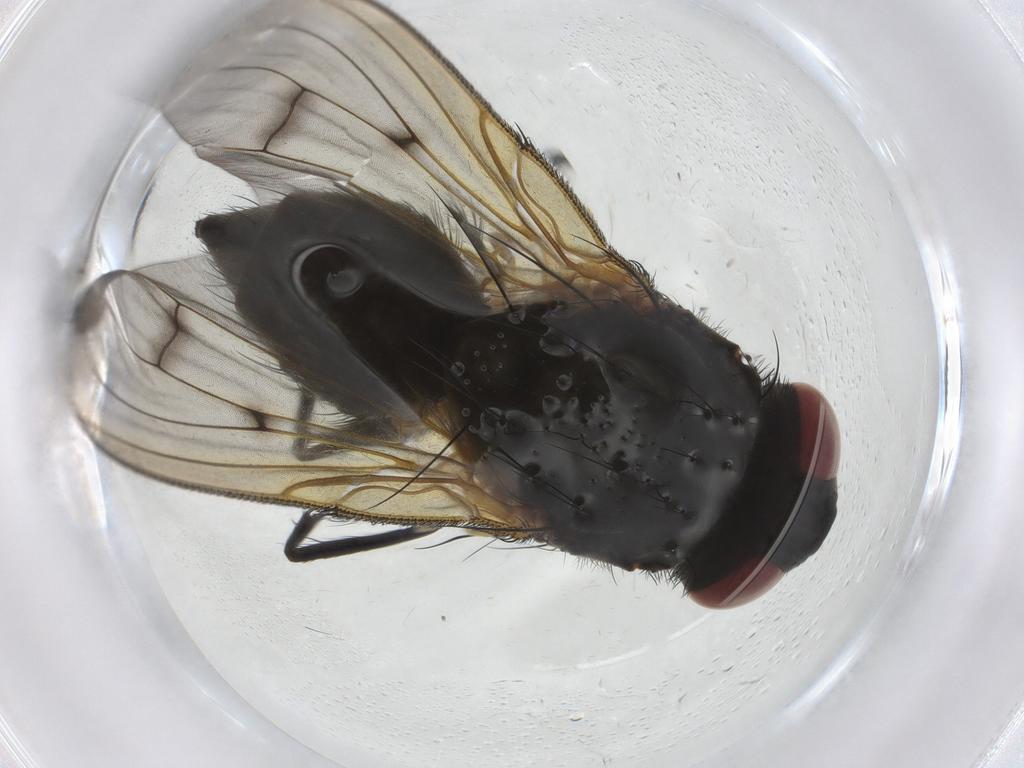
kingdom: Animalia
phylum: Arthropoda
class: Insecta
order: Diptera
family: Muscidae
